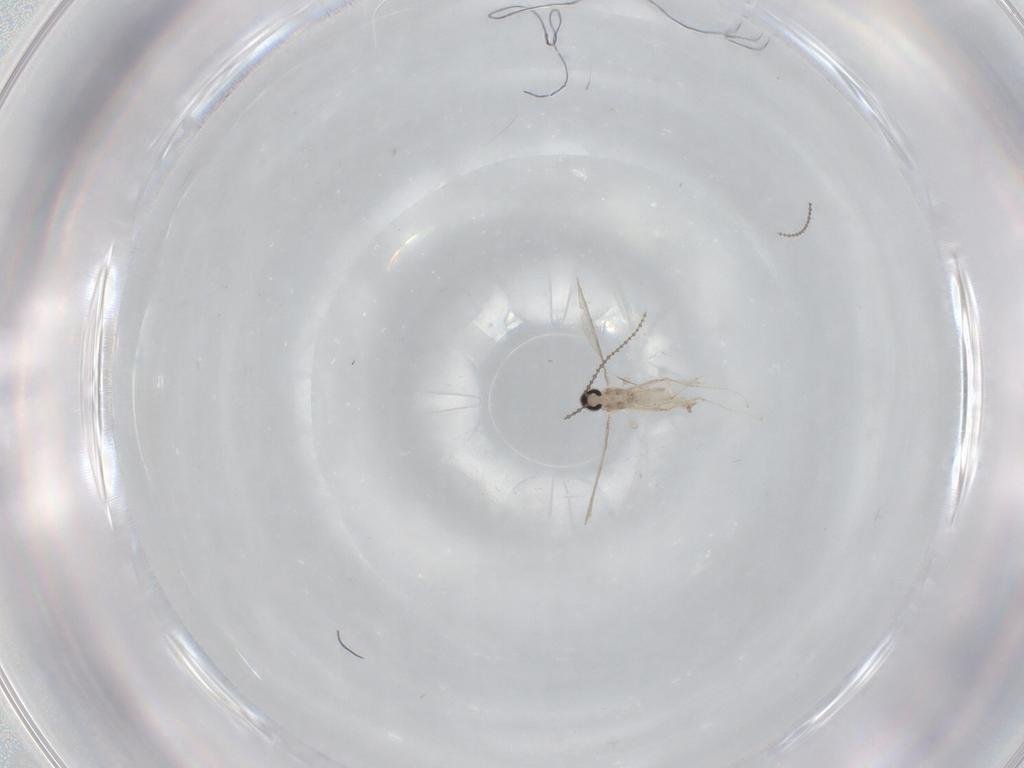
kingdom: Animalia
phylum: Arthropoda
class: Insecta
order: Diptera
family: Cecidomyiidae
